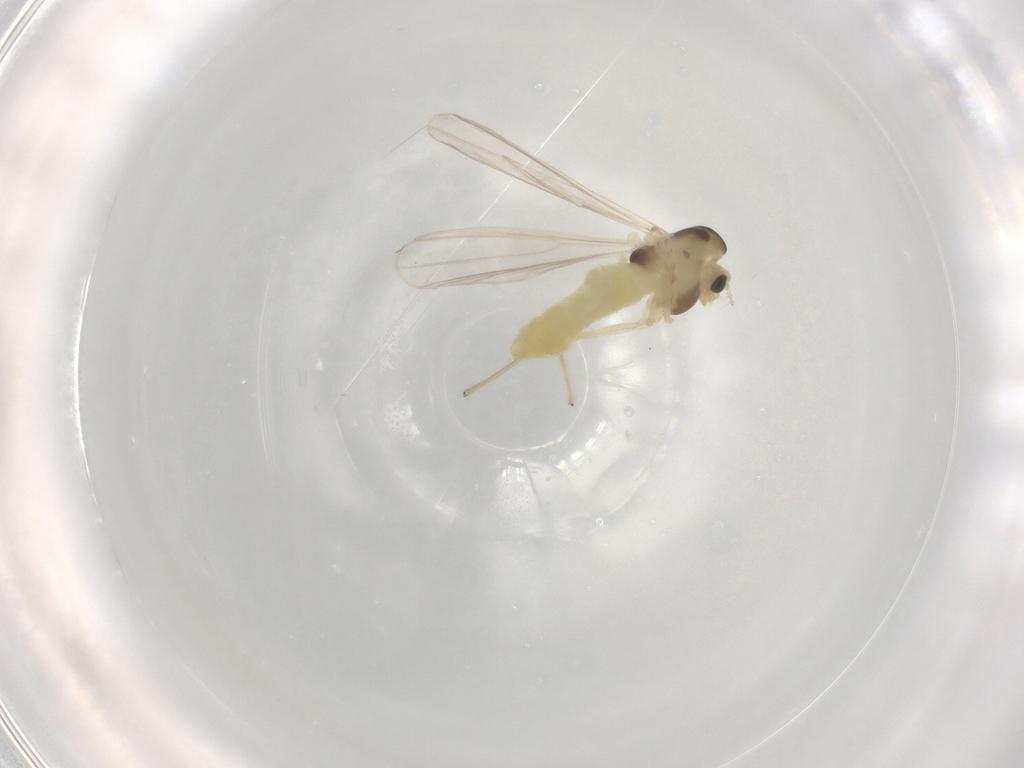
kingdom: Animalia
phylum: Arthropoda
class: Insecta
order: Diptera
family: Chironomidae
